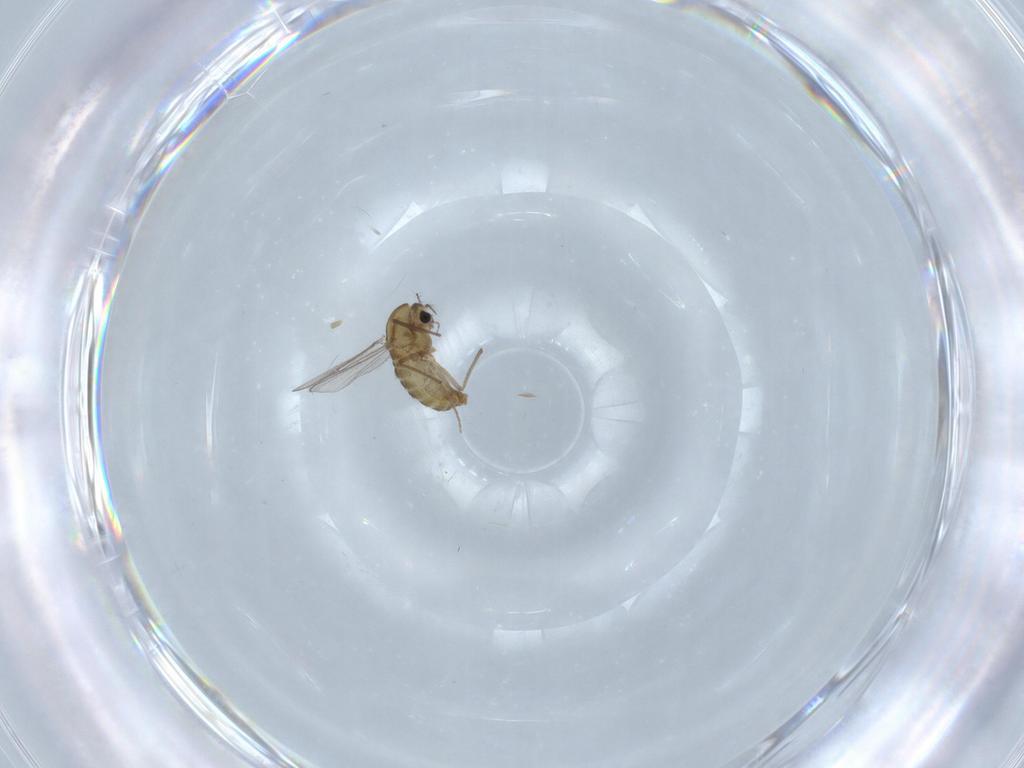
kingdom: Animalia
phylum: Arthropoda
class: Insecta
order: Diptera
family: Chironomidae
